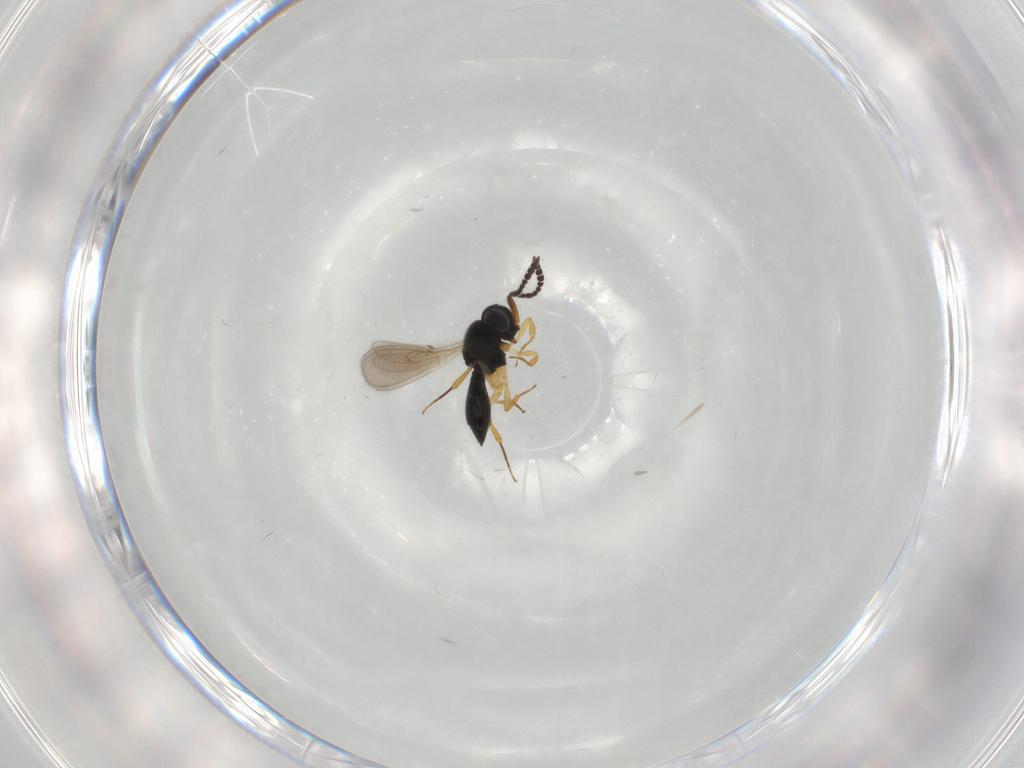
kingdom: Animalia
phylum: Arthropoda
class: Insecta
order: Hymenoptera
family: Scelionidae
